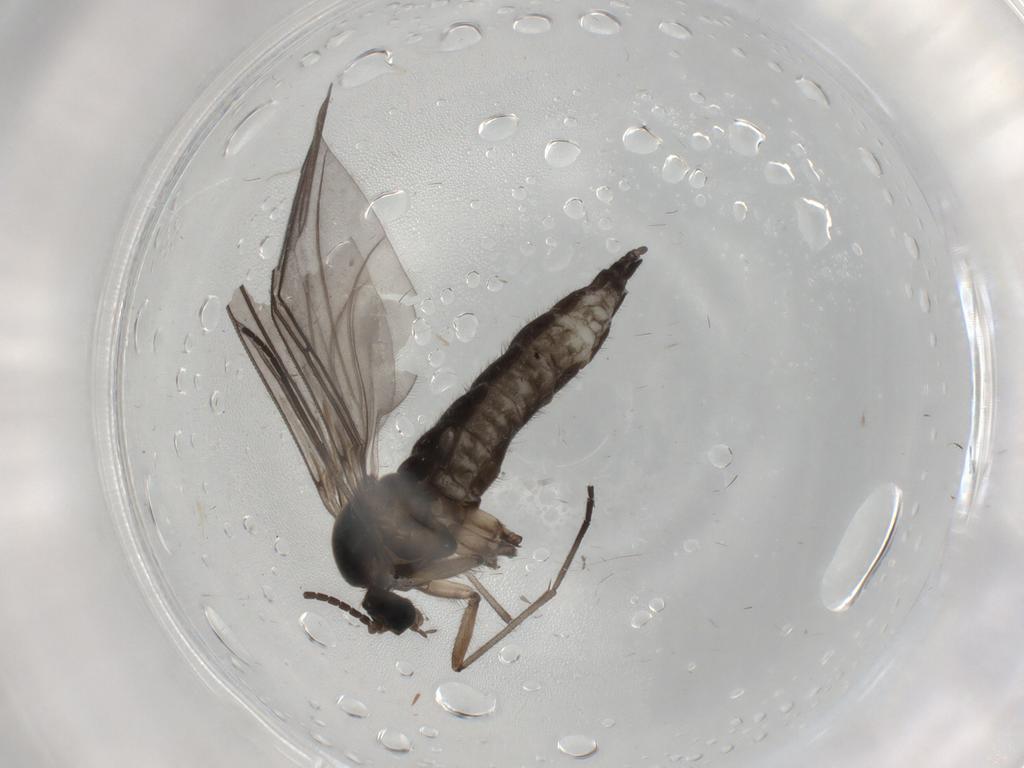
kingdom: Animalia
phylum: Arthropoda
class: Insecta
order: Diptera
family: Sciaridae
